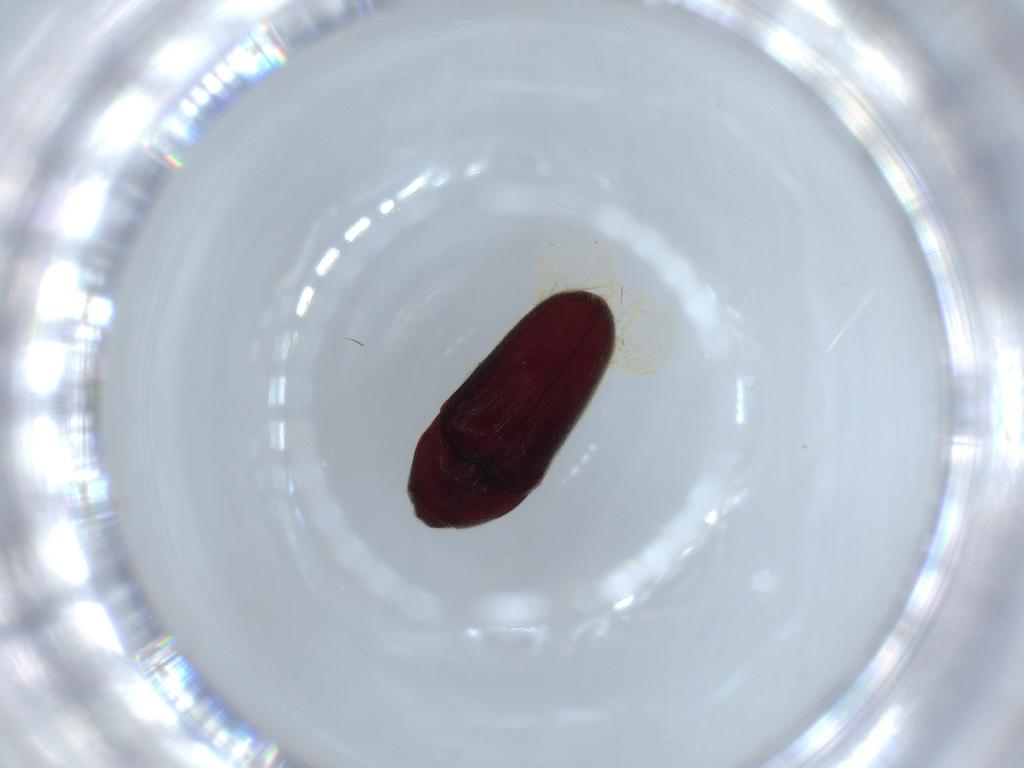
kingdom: Animalia
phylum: Arthropoda
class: Insecta
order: Coleoptera
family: Throscidae
